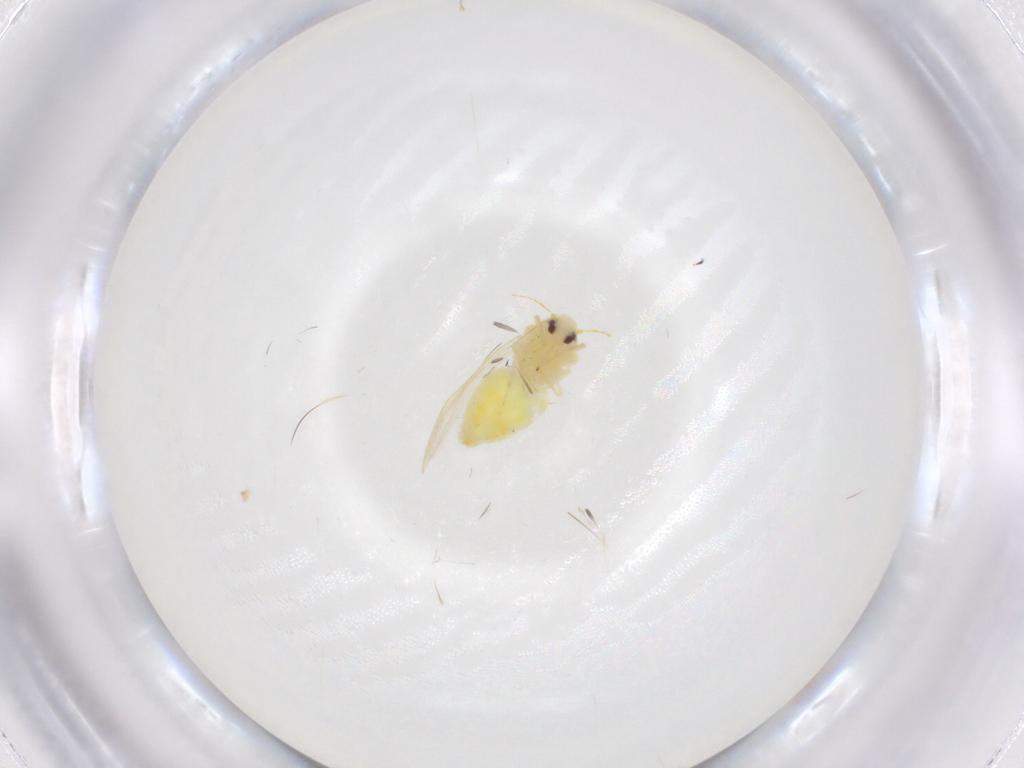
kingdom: Animalia
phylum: Arthropoda
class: Insecta
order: Hemiptera
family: Aleyrodidae
